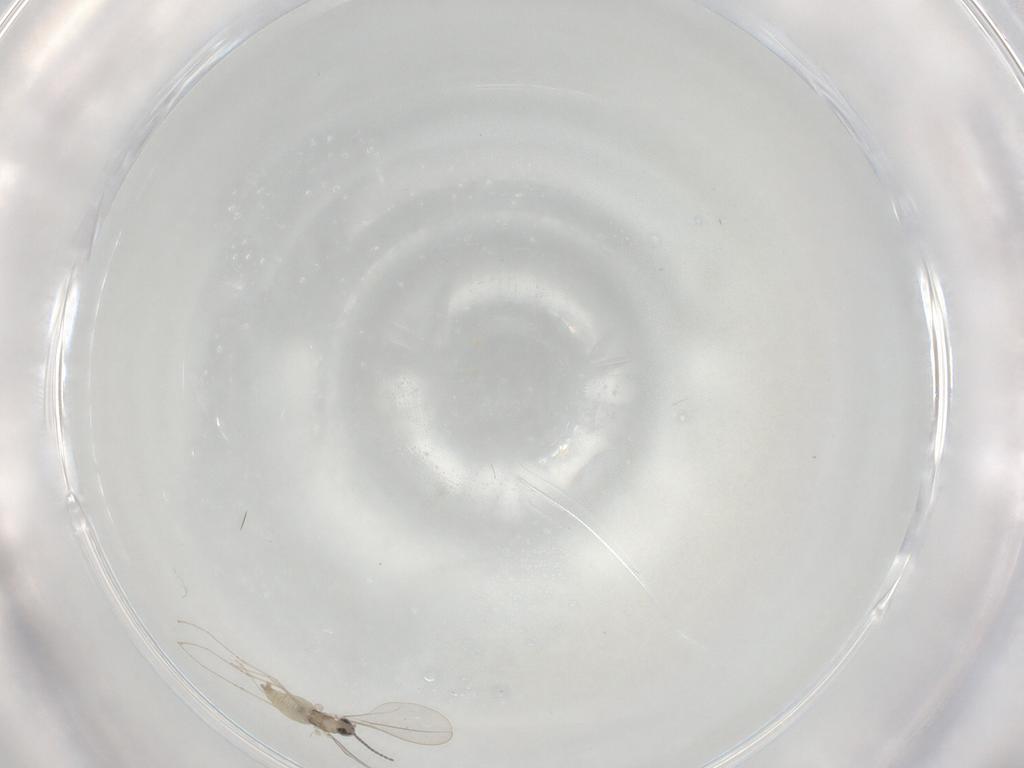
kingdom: Animalia
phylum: Arthropoda
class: Insecta
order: Diptera
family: Cecidomyiidae
